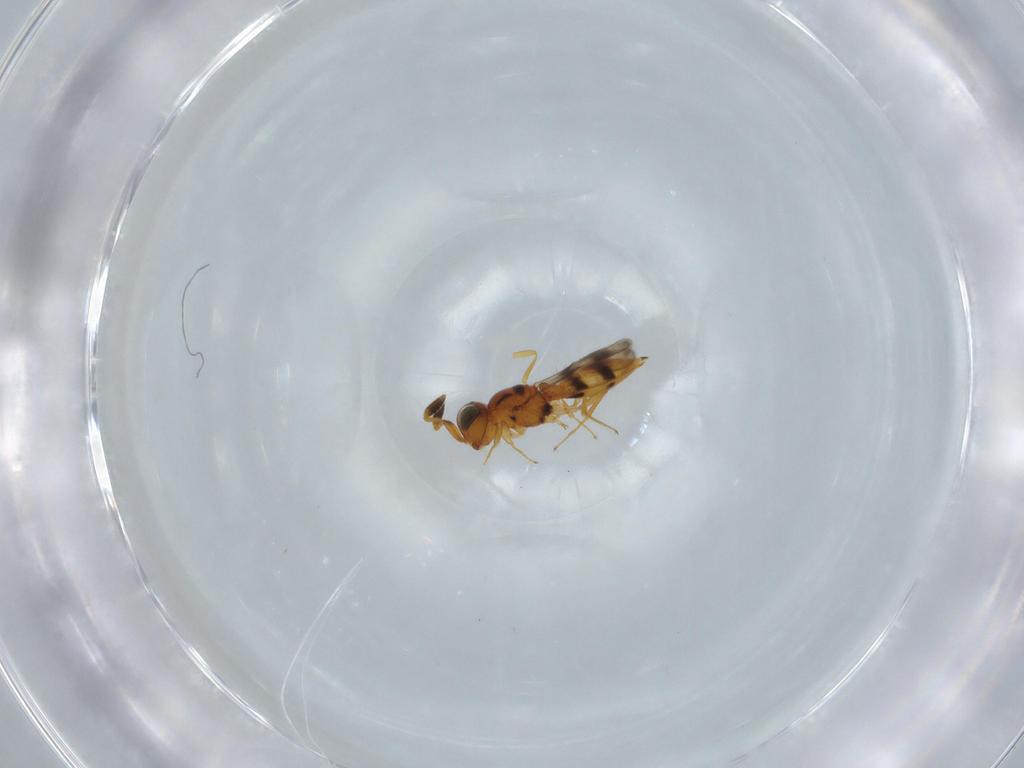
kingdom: Animalia
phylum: Arthropoda
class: Insecta
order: Hymenoptera
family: Scelionidae
